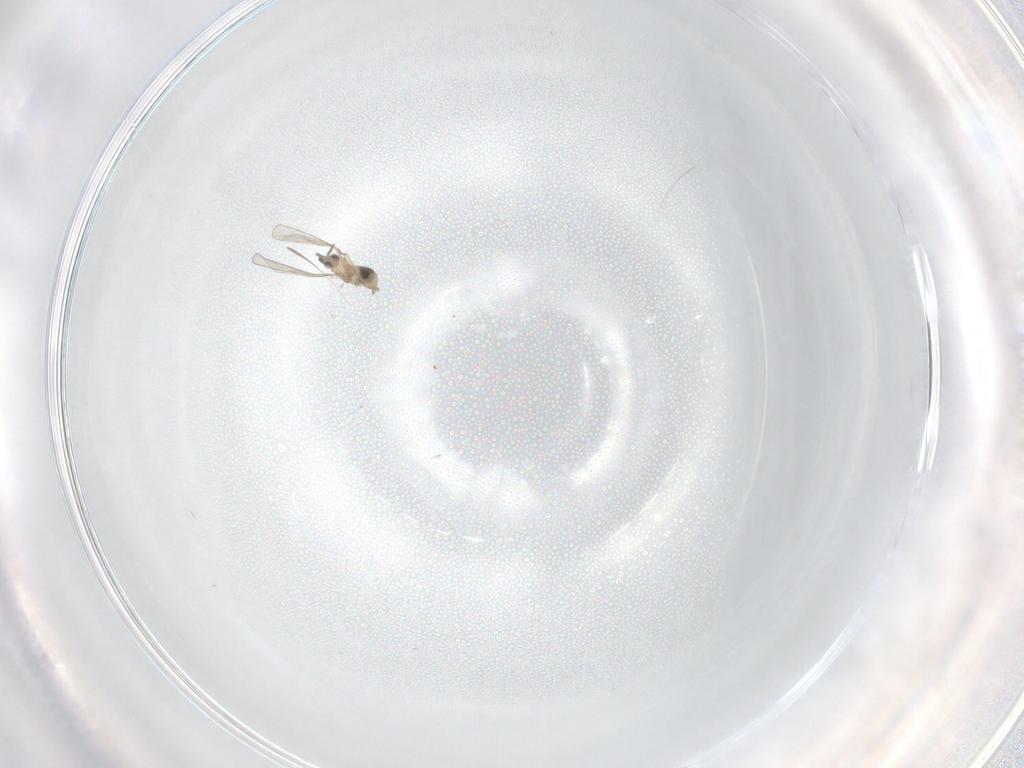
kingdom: Animalia
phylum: Arthropoda
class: Insecta
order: Diptera
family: Cecidomyiidae
